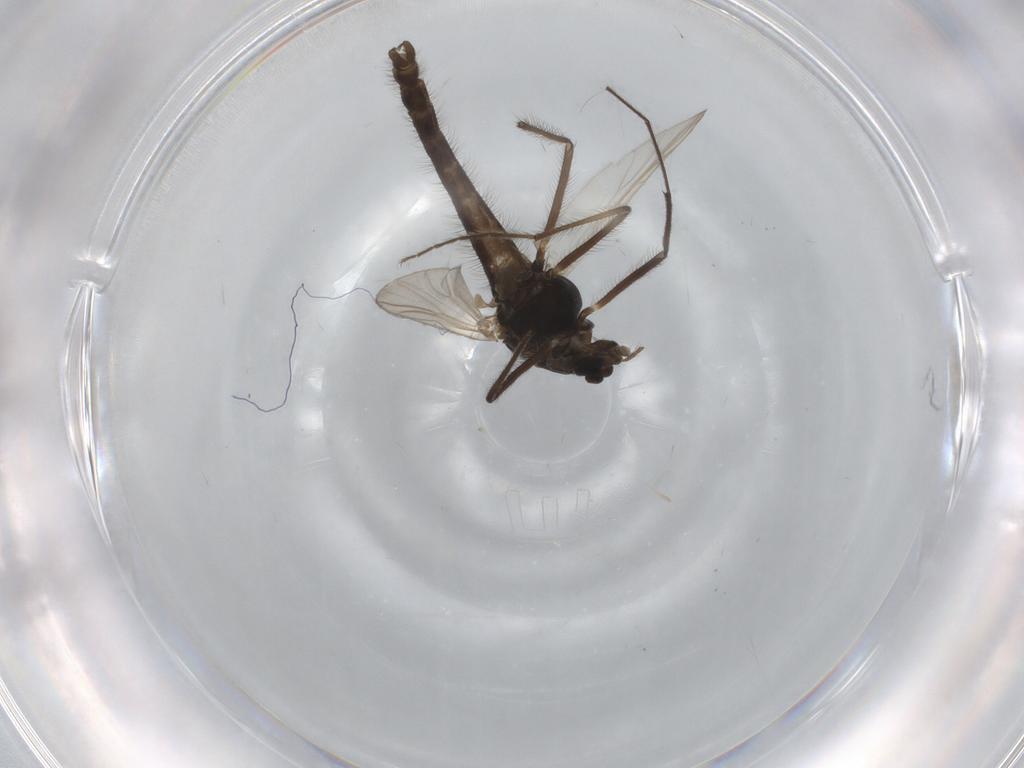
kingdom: Animalia
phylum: Arthropoda
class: Insecta
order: Diptera
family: Chironomidae
